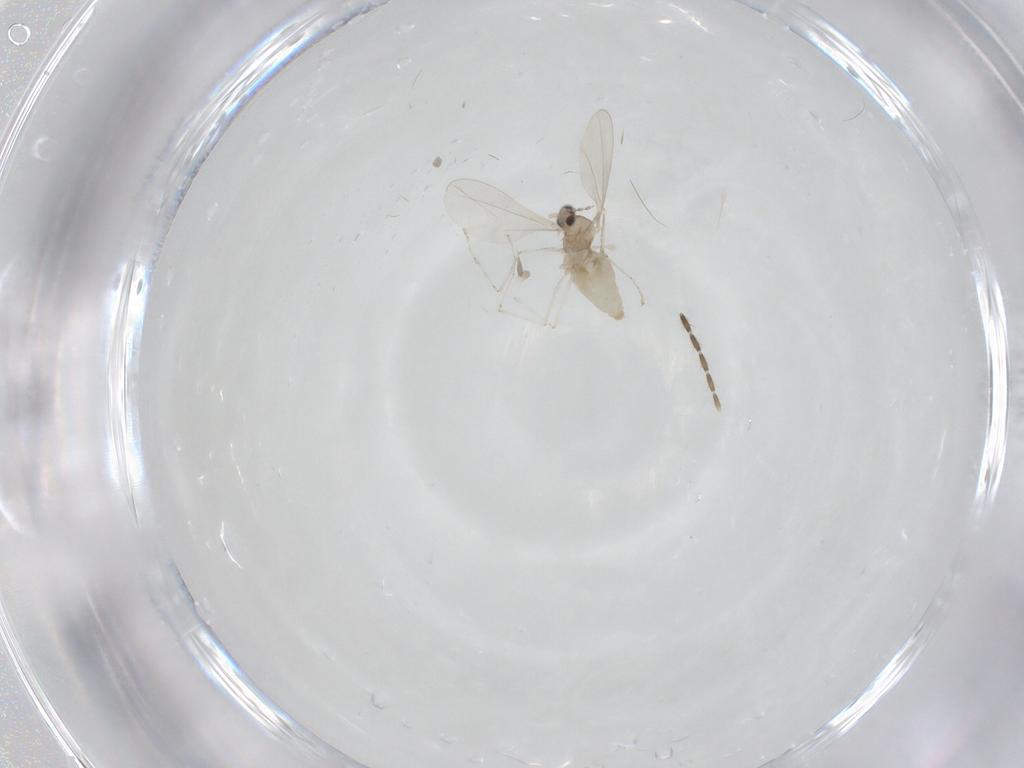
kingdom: Animalia
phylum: Arthropoda
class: Insecta
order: Diptera
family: Cecidomyiidae
